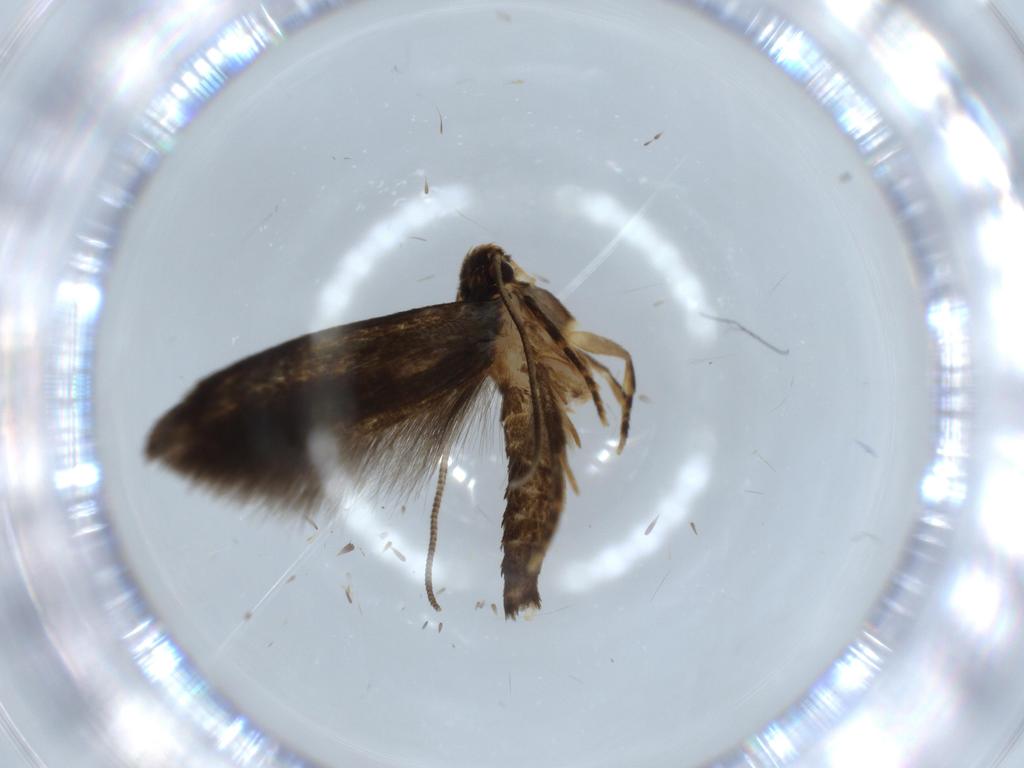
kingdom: Animalia
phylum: Arthropoda
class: Insecta
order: Lepidoptera
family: Tineidae
